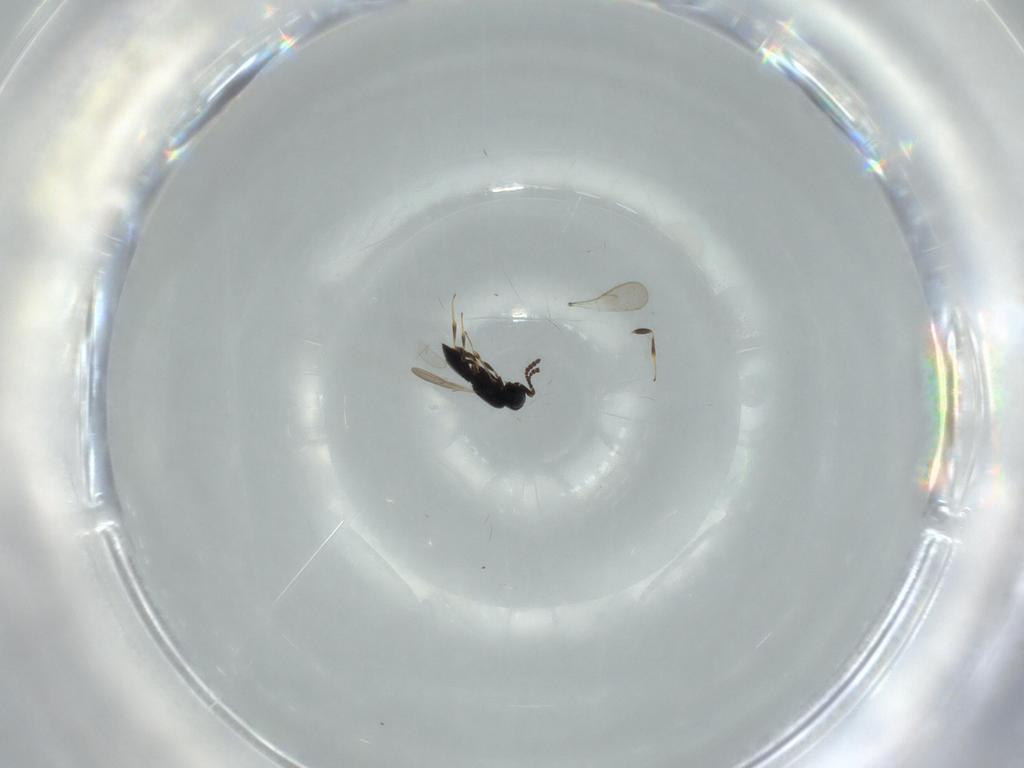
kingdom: Animalia
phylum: Arthropoda
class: Insecta
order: Hymenoptera
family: Scelionidae
